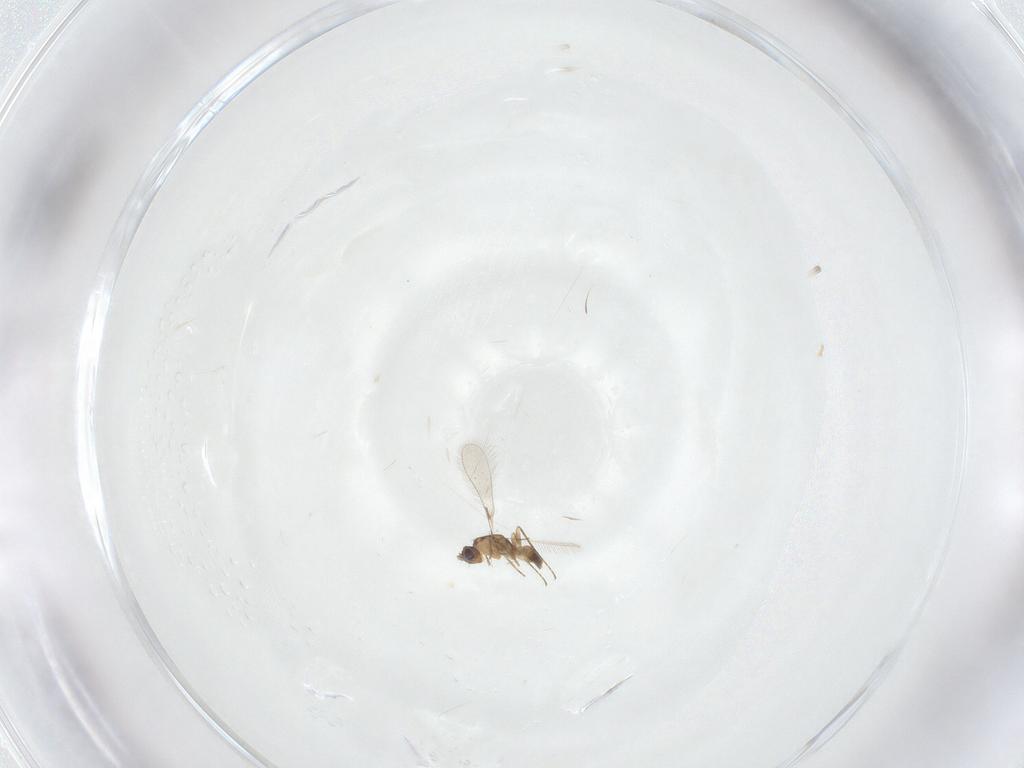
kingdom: Animalia
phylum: Arthropoda
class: Insecta
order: Hymenoptera
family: Mymaridae
